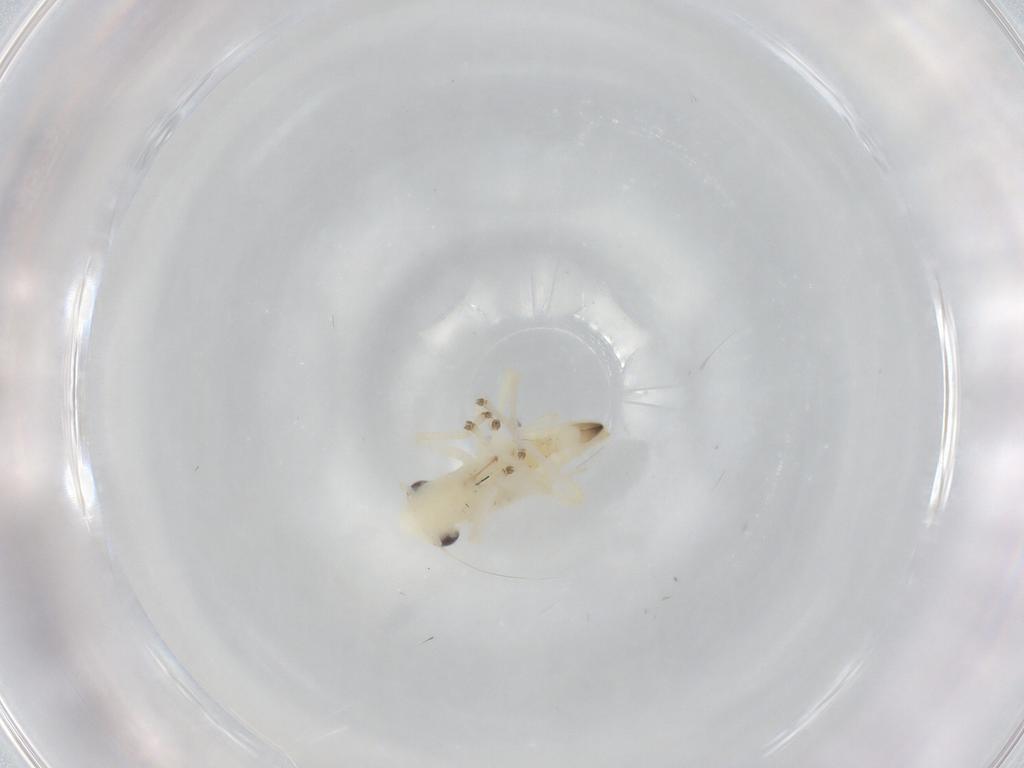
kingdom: Animalia
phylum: Arthropoda
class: Insecta
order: Hemiptera
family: Cicadellidae
